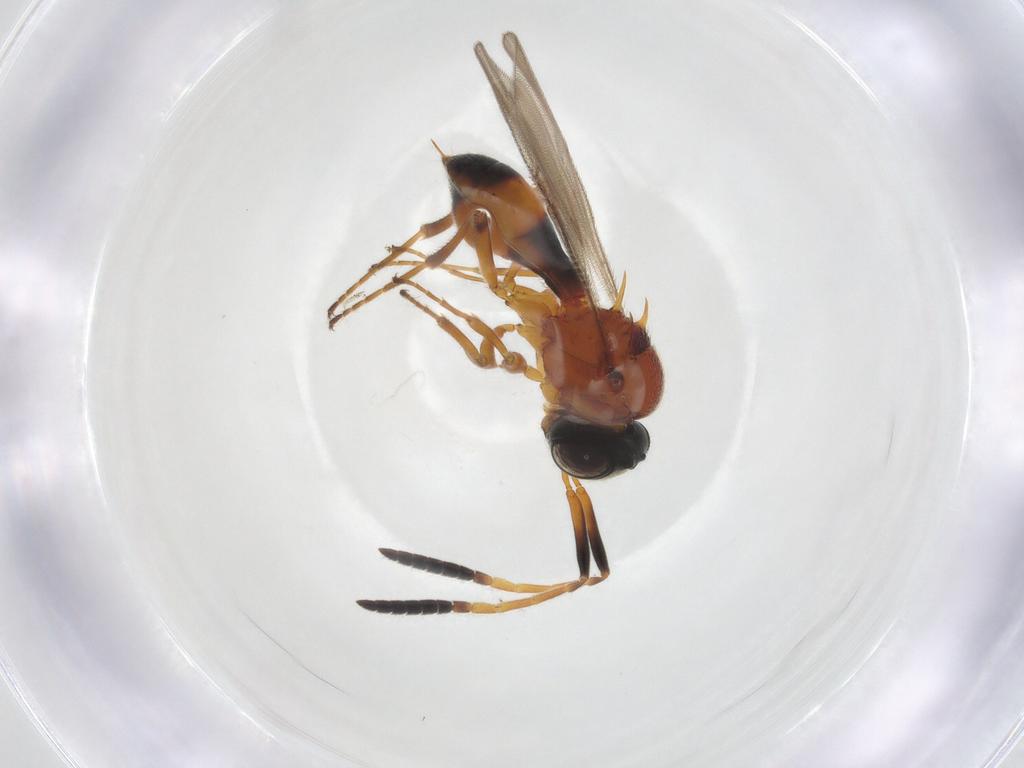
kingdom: Animalia
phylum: Arthropoda
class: Insecta
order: Hymenoptera
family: Scelionidae
